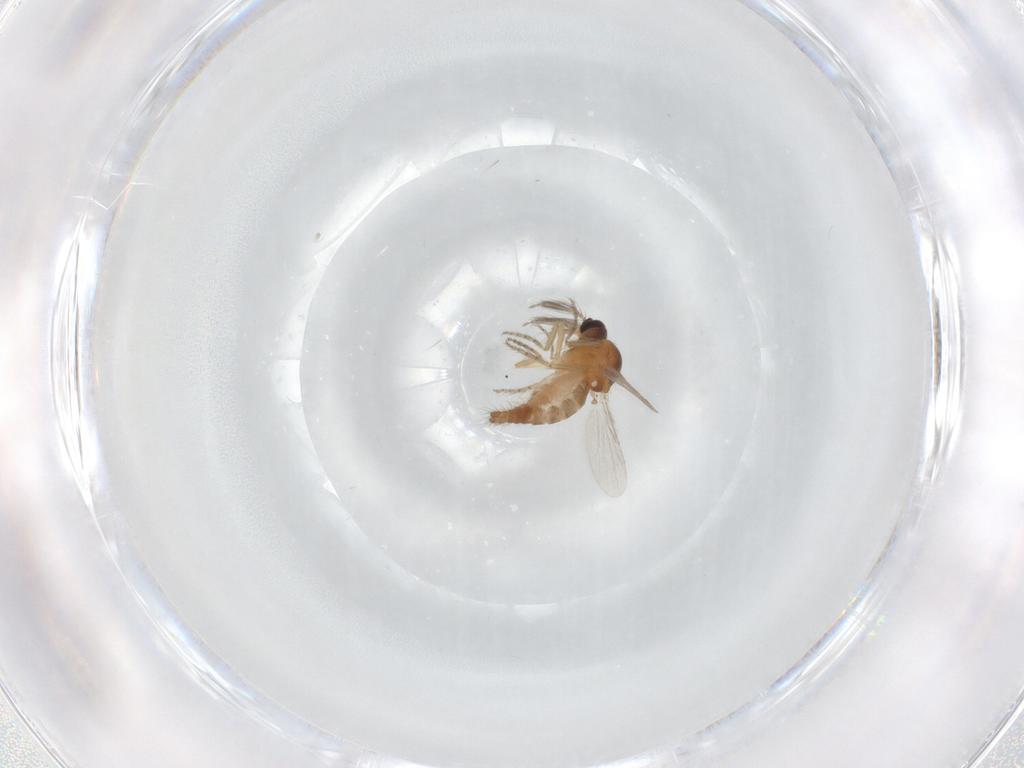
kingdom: Animalia
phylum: Arthropoda
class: Insecta
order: Diptera
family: Ceratopogonidae
